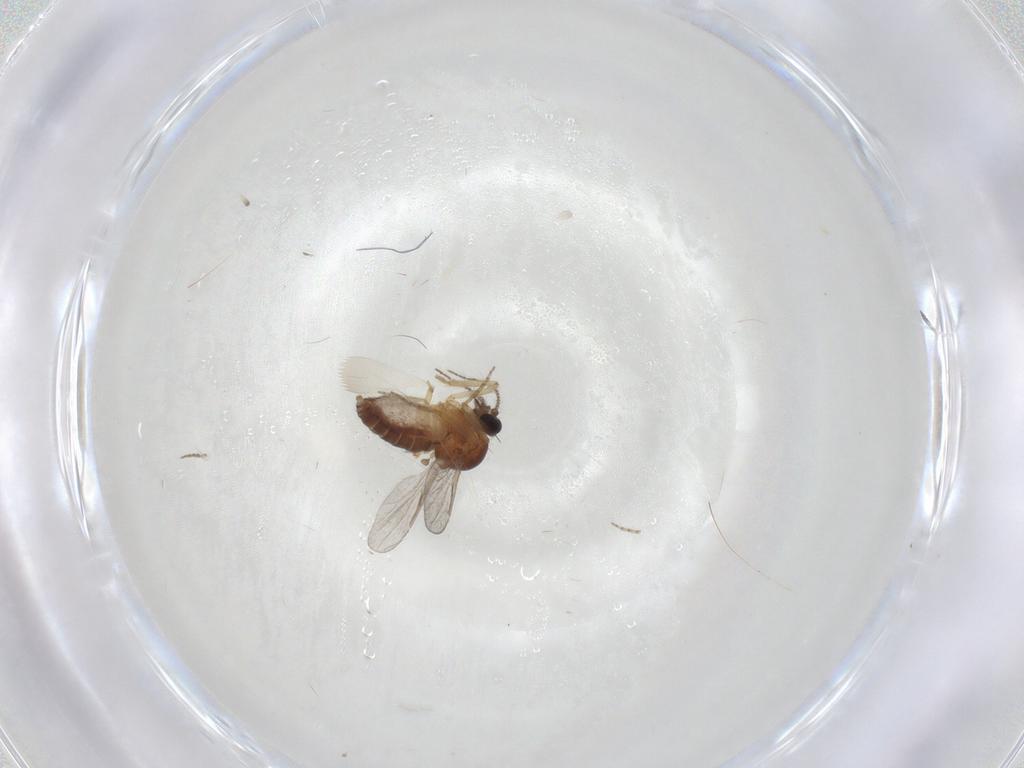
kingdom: Animalia
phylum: Arthropoda
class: Insecta
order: Diptera
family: Ceratopogonidae
